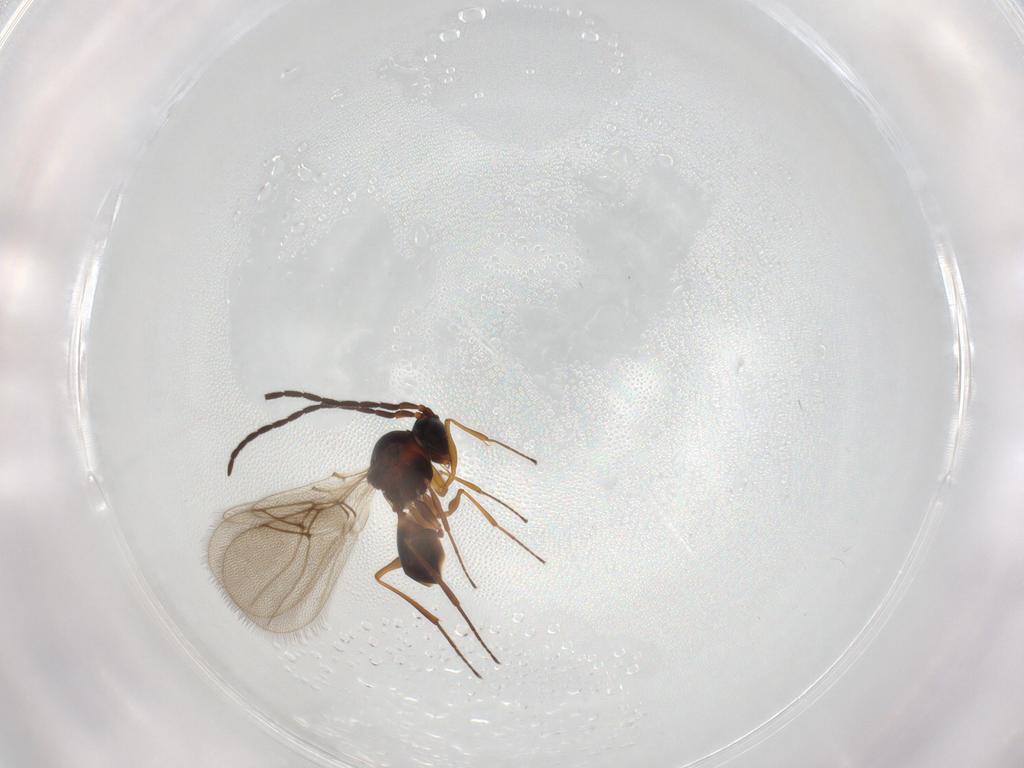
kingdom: Animalia
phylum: Arthropoda
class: Insecta
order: Hymenoptera
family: Figitidae
